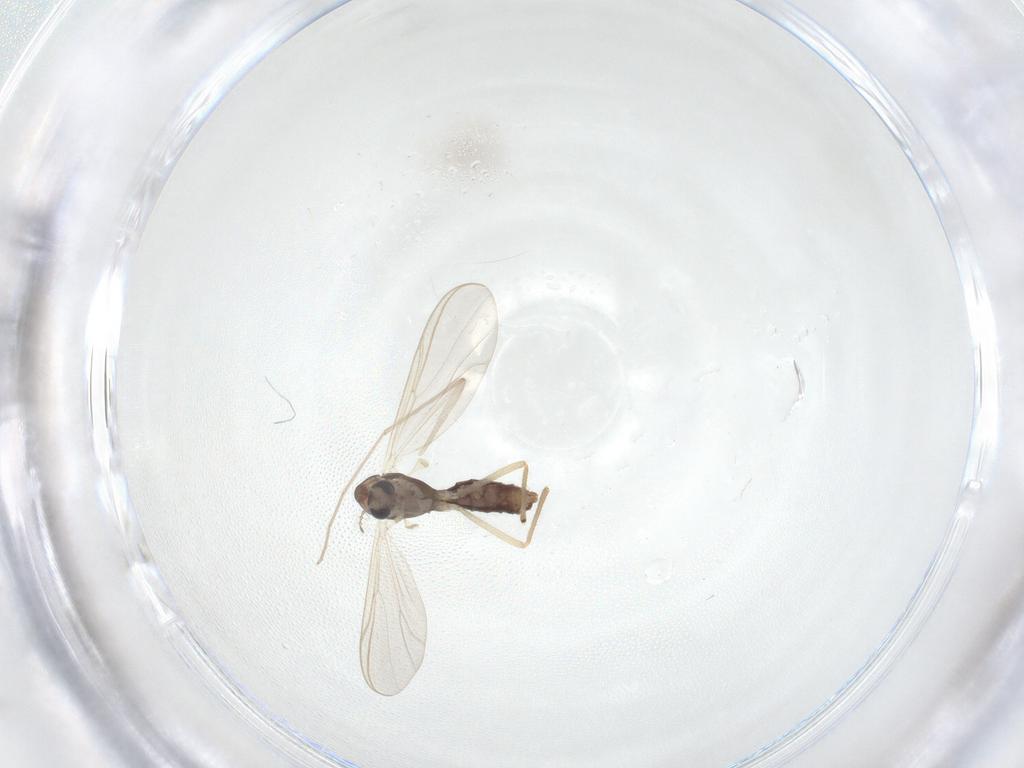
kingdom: Animalia
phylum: Arthropoda
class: Insecta
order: Diptera
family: Chironomidae
